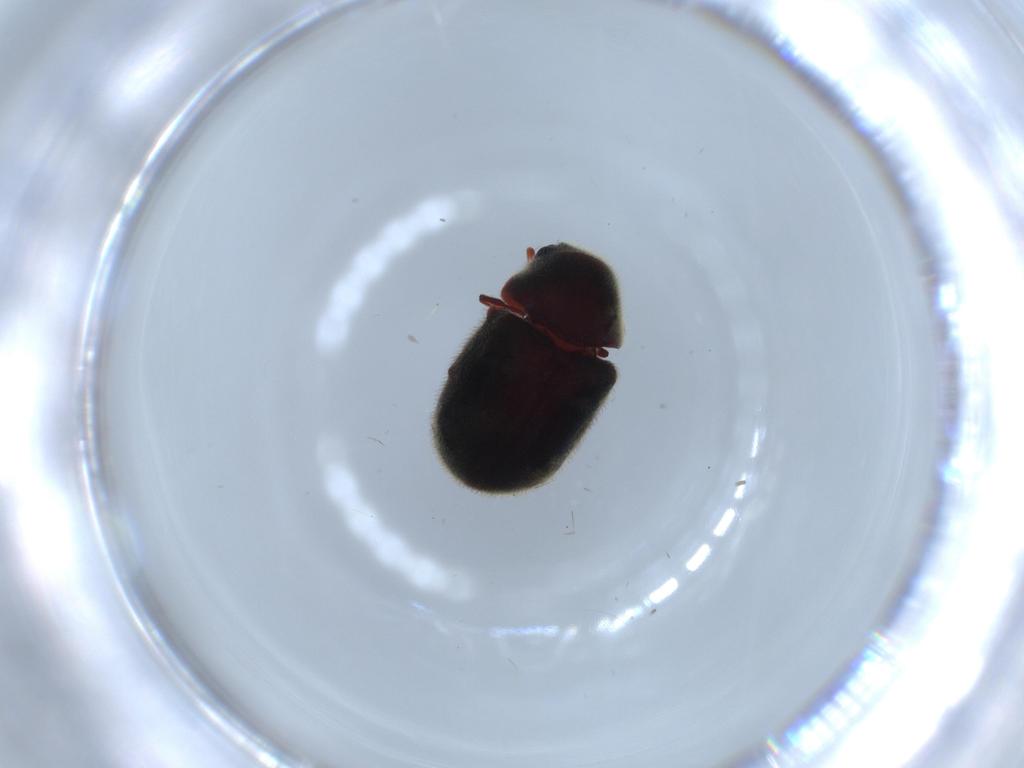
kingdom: Animalia
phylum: Arthropoda
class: Insecta
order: Coleoptera
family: Ptinidae
